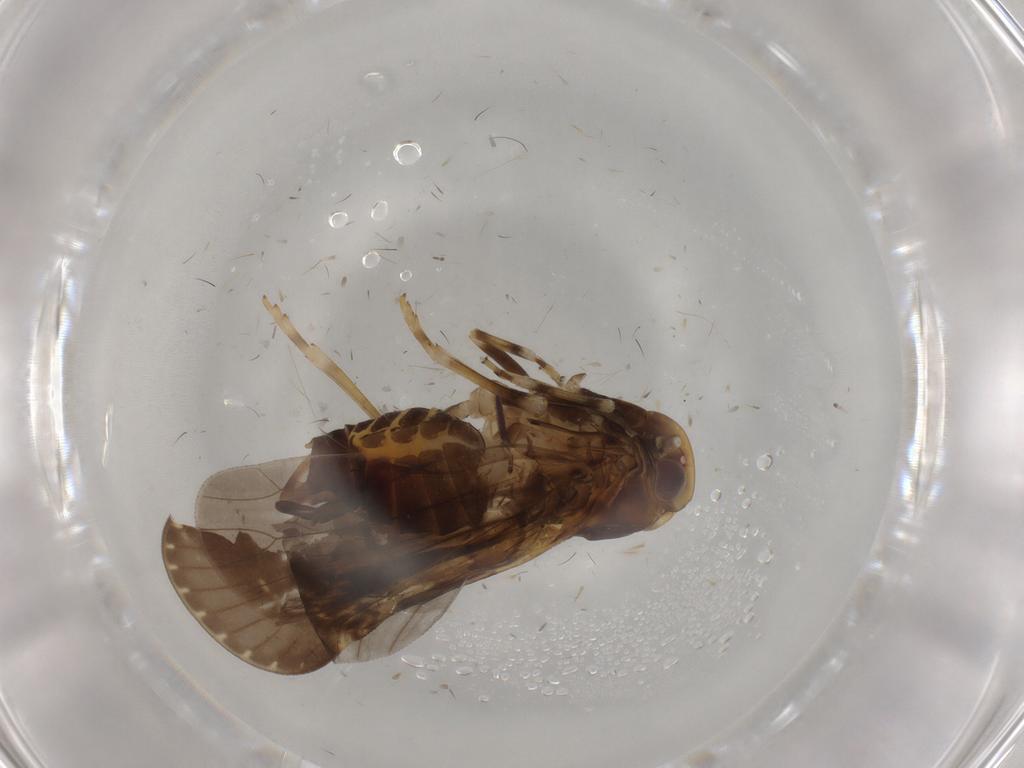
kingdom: Animalia
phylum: Arthropoda
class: Insecta
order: Hemiptera
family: Cixiidae
